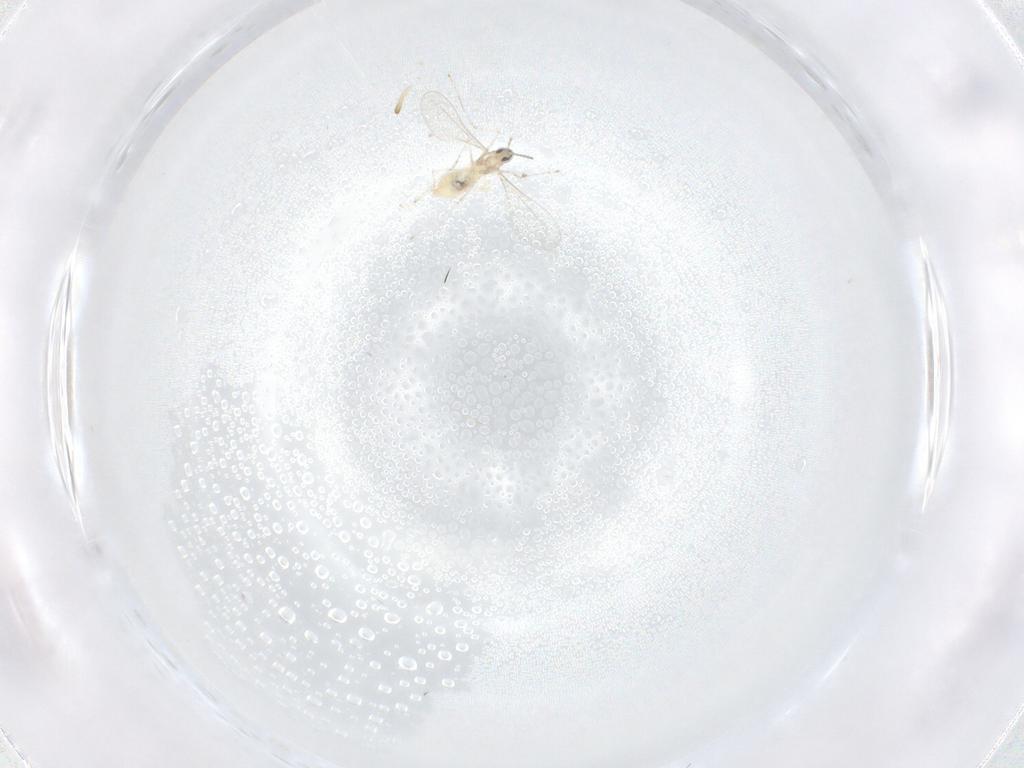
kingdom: Animalia
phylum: Arthropoda
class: Insecta
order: Diptera
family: Cecidomyiidae
